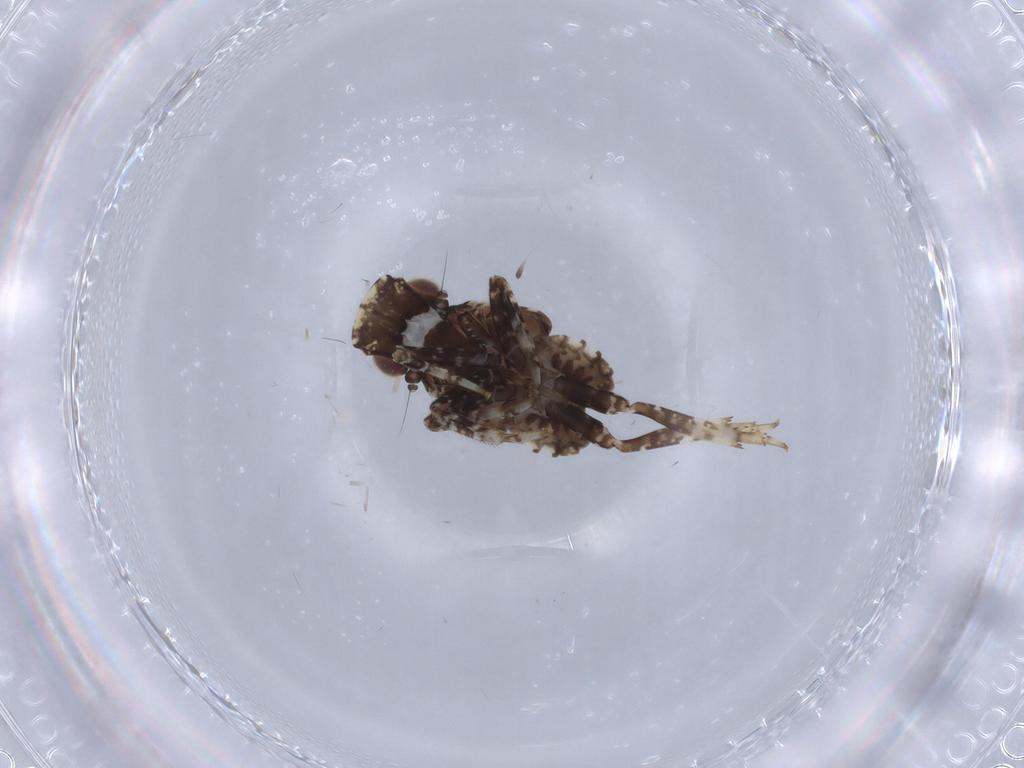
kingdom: Animalia
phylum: Arthropoda
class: Insecta
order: Hemiptera
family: Fulgoridae
